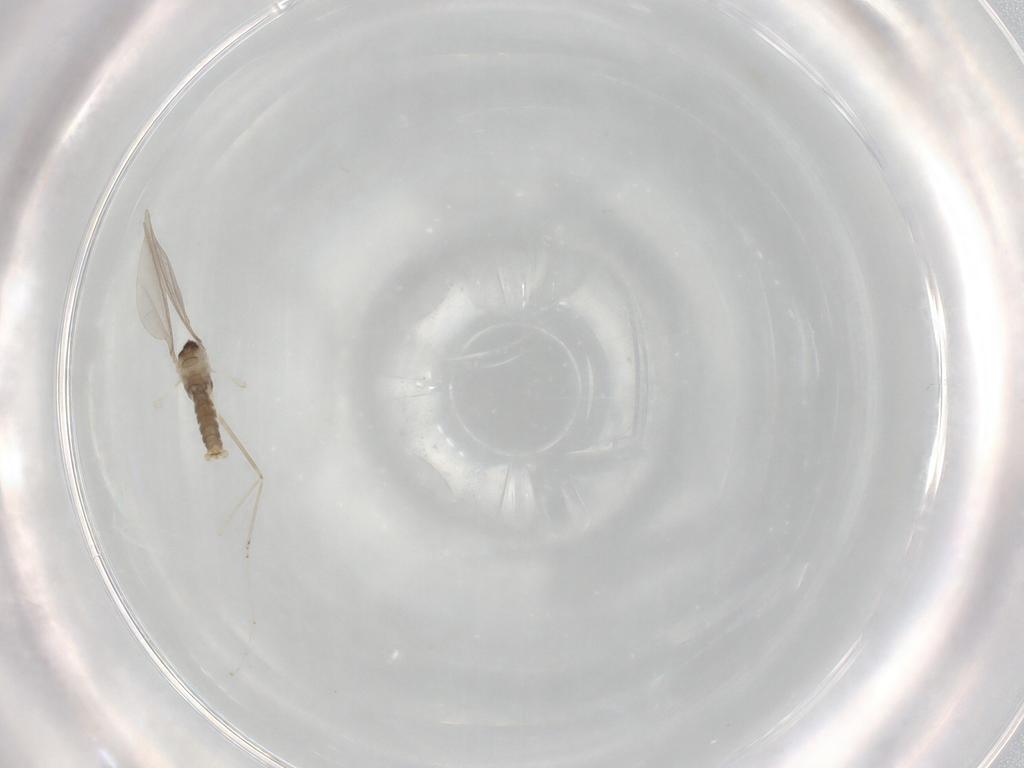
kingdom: Animalia
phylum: Arthropoda
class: Insecta
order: Diptera
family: Cecidomyiidae
